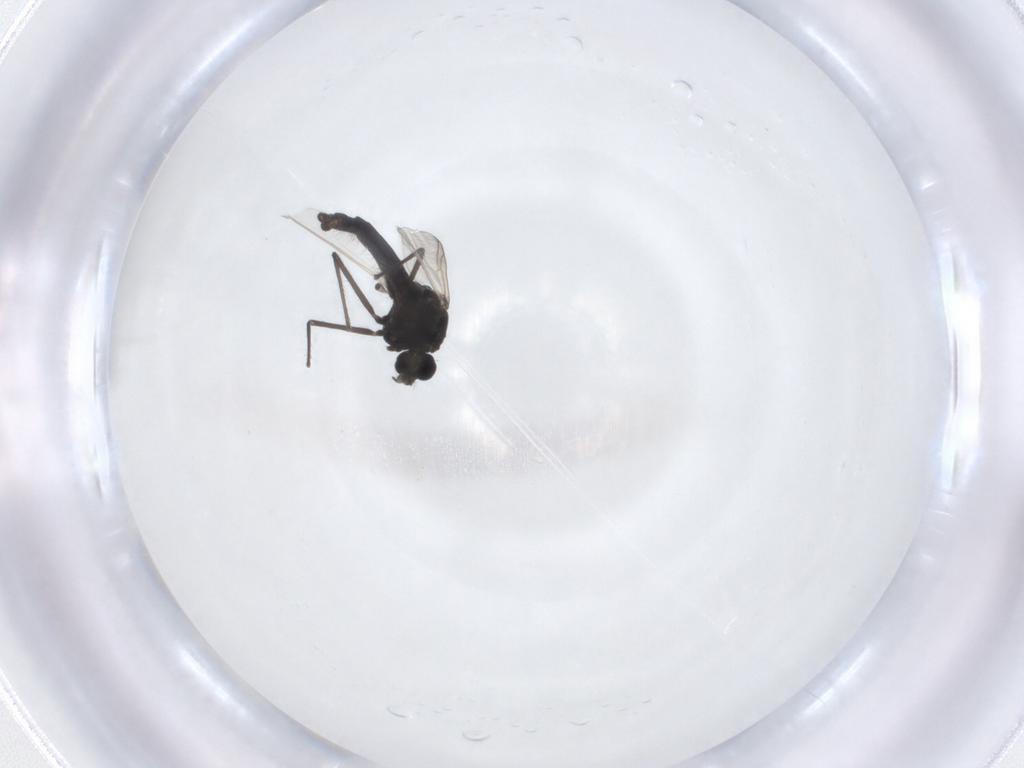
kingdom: Animalia
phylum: Arthropoda
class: Insecta
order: Diptera
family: Chironomidae
